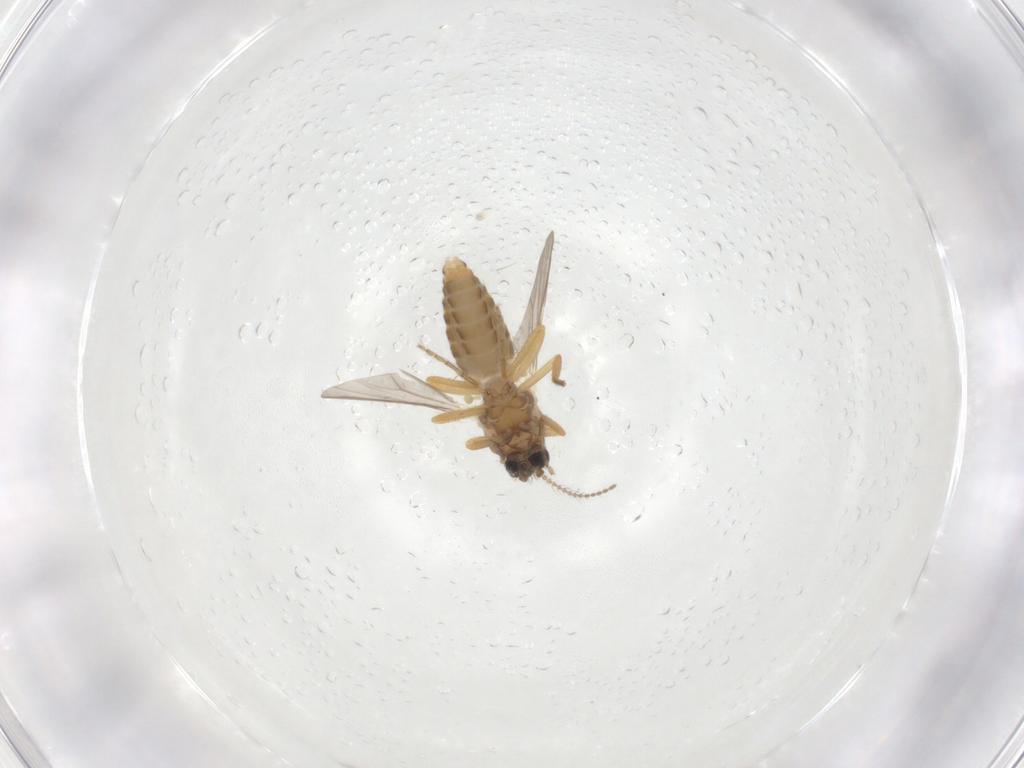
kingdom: Animalia
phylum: Arthropoda
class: Insecta
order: Diptera
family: Ceratopogonidae
